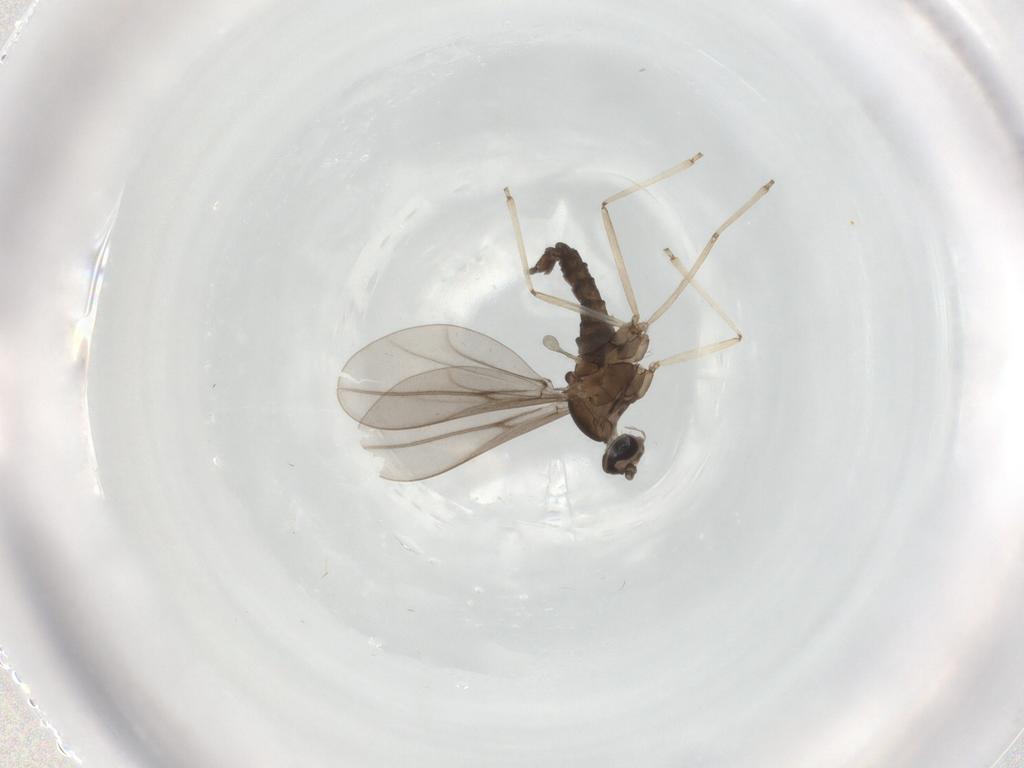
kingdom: Animalia
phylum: Arthropoda
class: Insecta
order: Diptera
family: Cecidomyiidae
